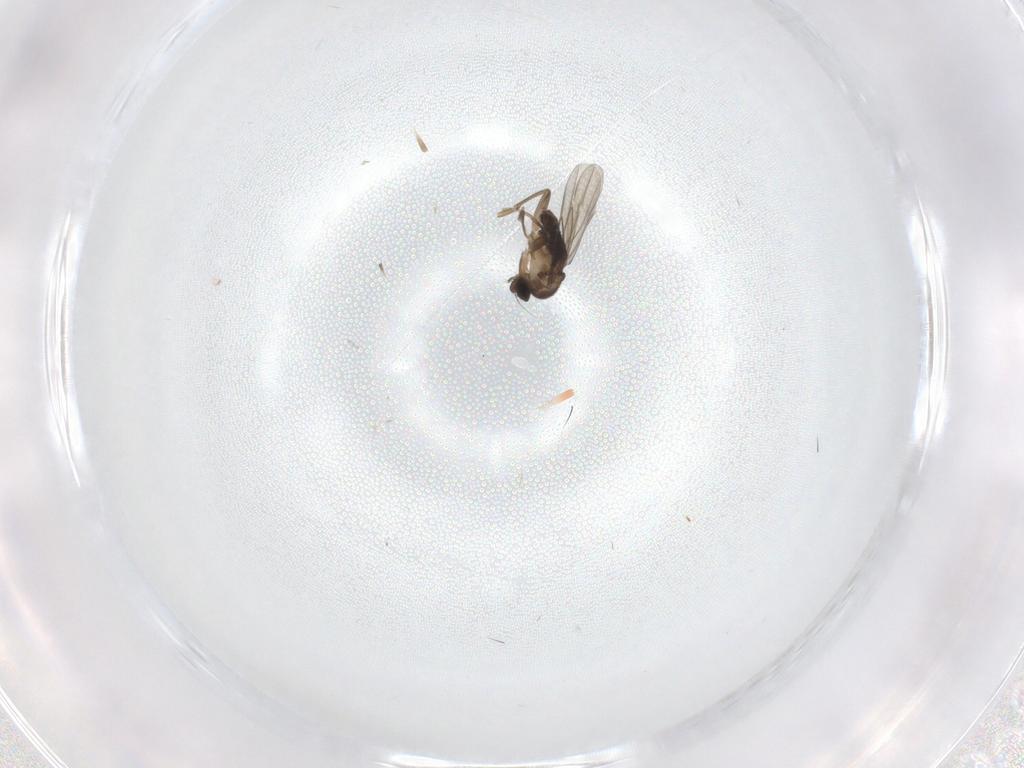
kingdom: Animalia
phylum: Arthropoda
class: Insecta
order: Diptera
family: Phoridae
